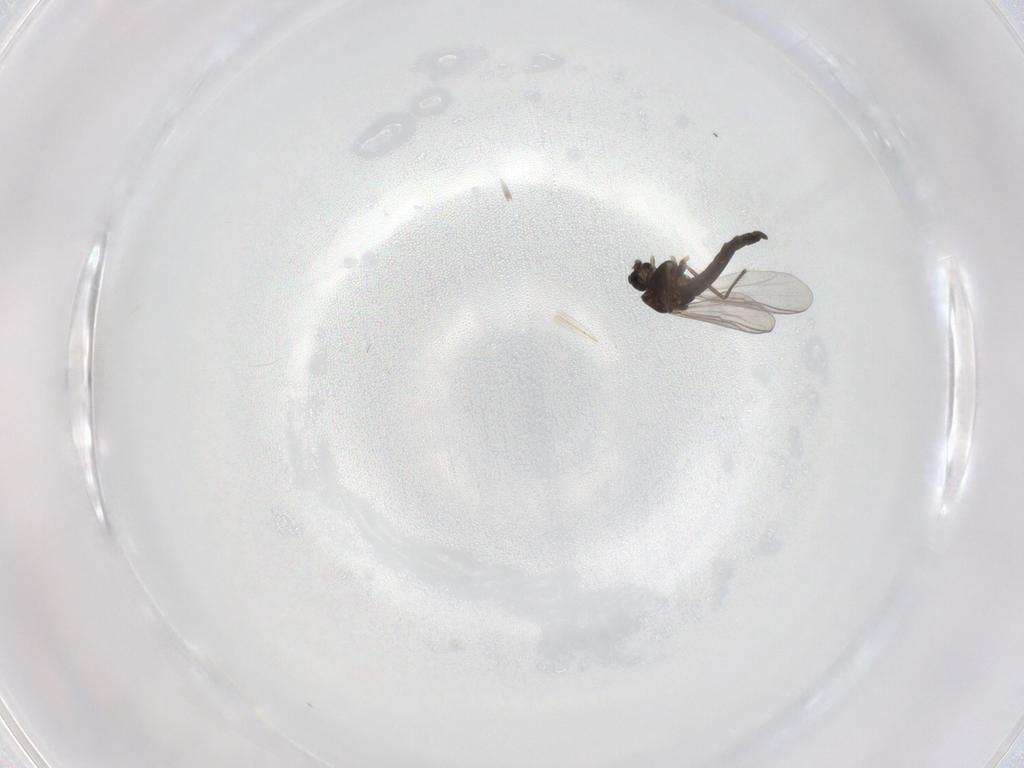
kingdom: Animalia
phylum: Arthropoda
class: Insecta
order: Diptera
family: Chironomidae
